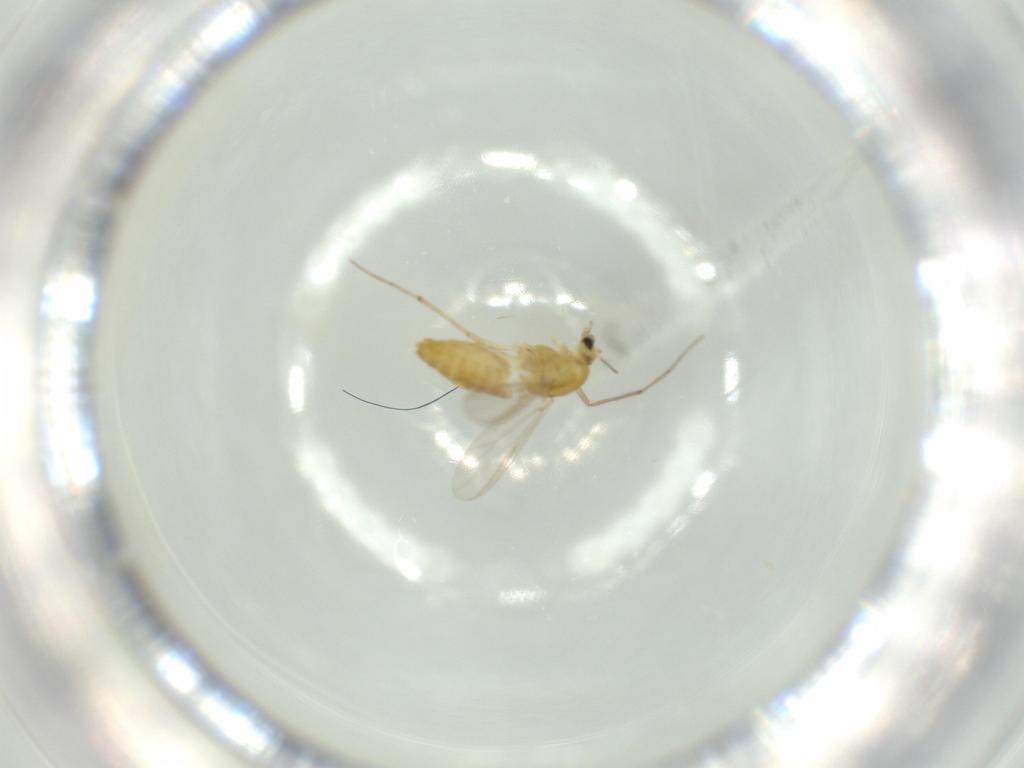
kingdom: Animalia
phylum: Arthropoda
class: Insecta
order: Diptera
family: Chironomidae
